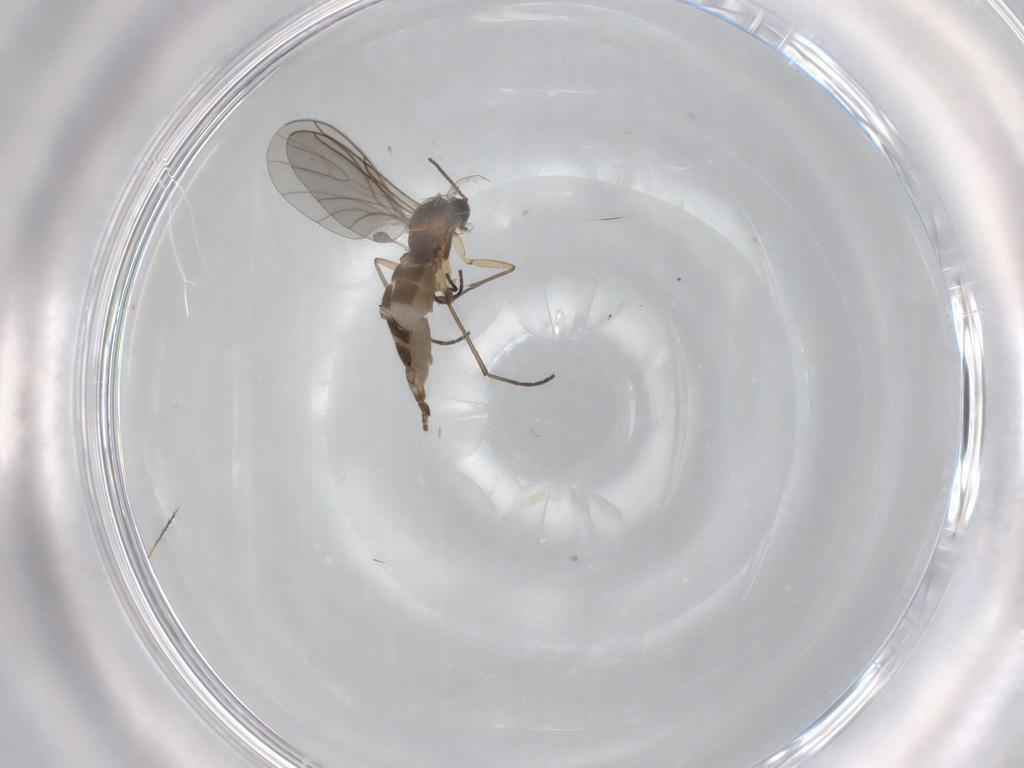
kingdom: Animalia
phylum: Arthropoda
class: Insecta
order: Diptera
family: Sciaridae
